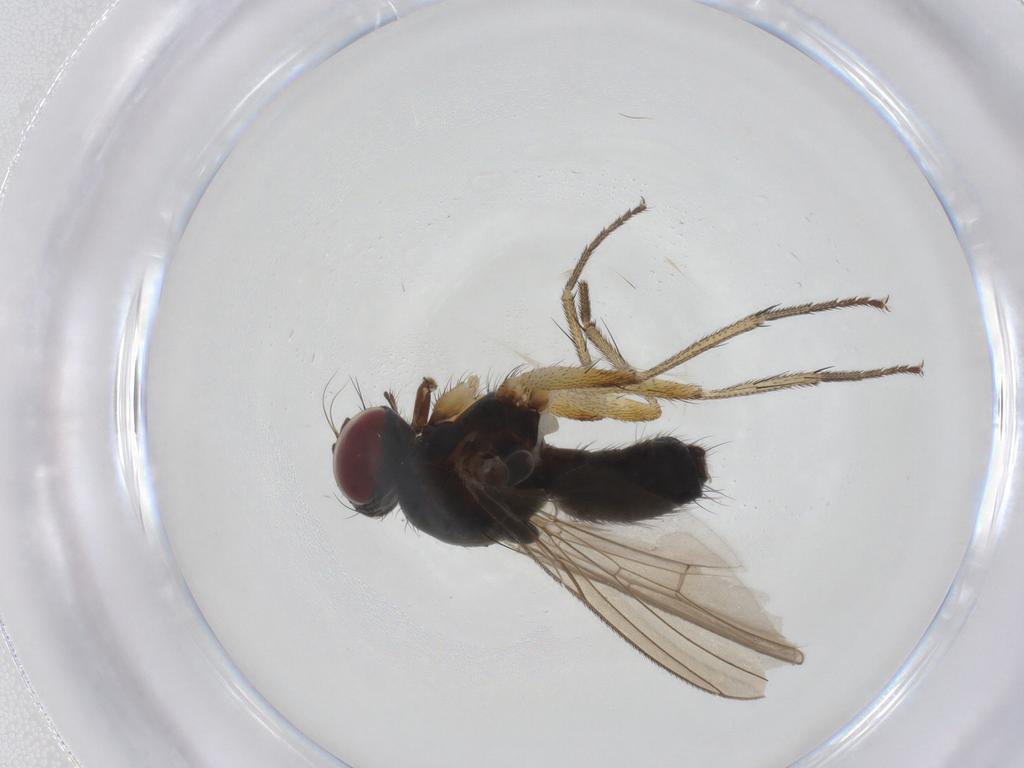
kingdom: Animalia
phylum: Arthropoda
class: Insecta
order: Diptera
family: Muscidae
